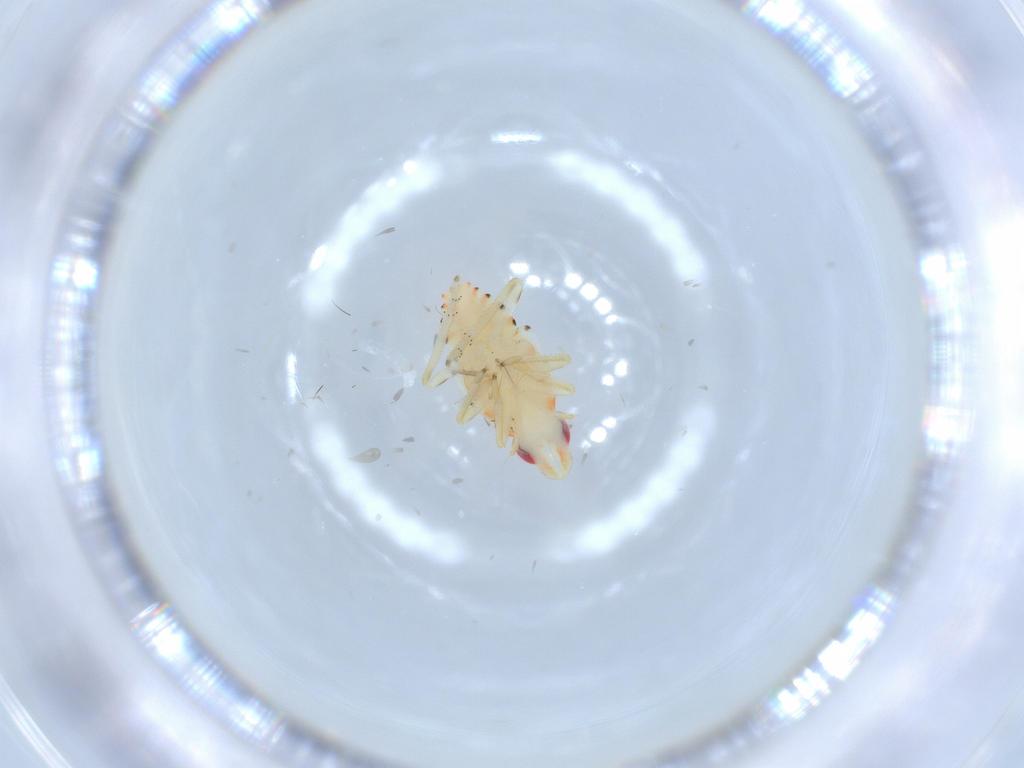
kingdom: Animalia
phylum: Arthropoda
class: Insecta
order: Hemiptera
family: Tropiduchidae
